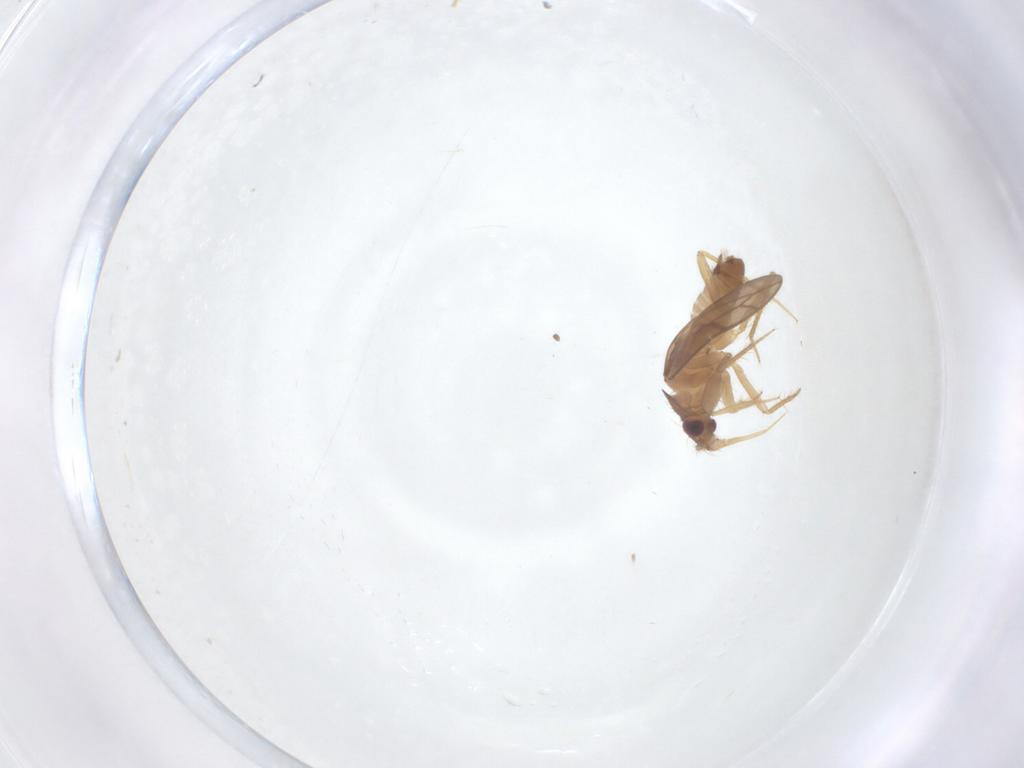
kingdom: Animalia
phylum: Arthropoda
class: Insecta
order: Hemiptera
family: Ceratocombidae
